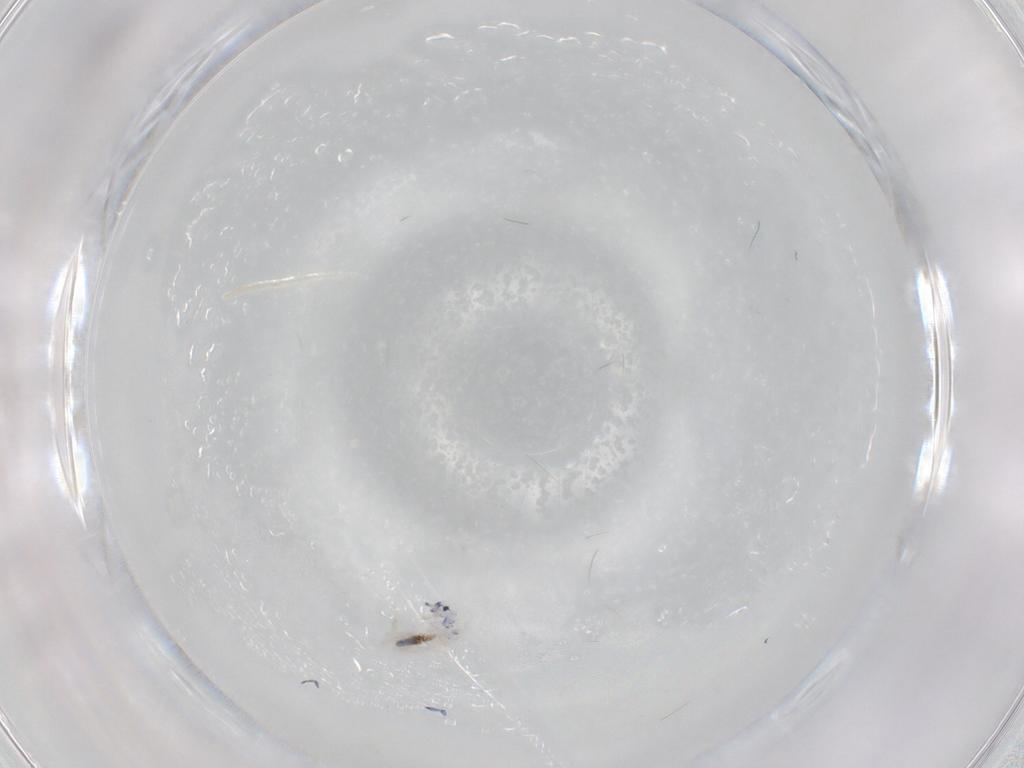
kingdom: Animalia
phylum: Arthropoda
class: Collembola
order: Entomobryomorpha
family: Entomobryidae
